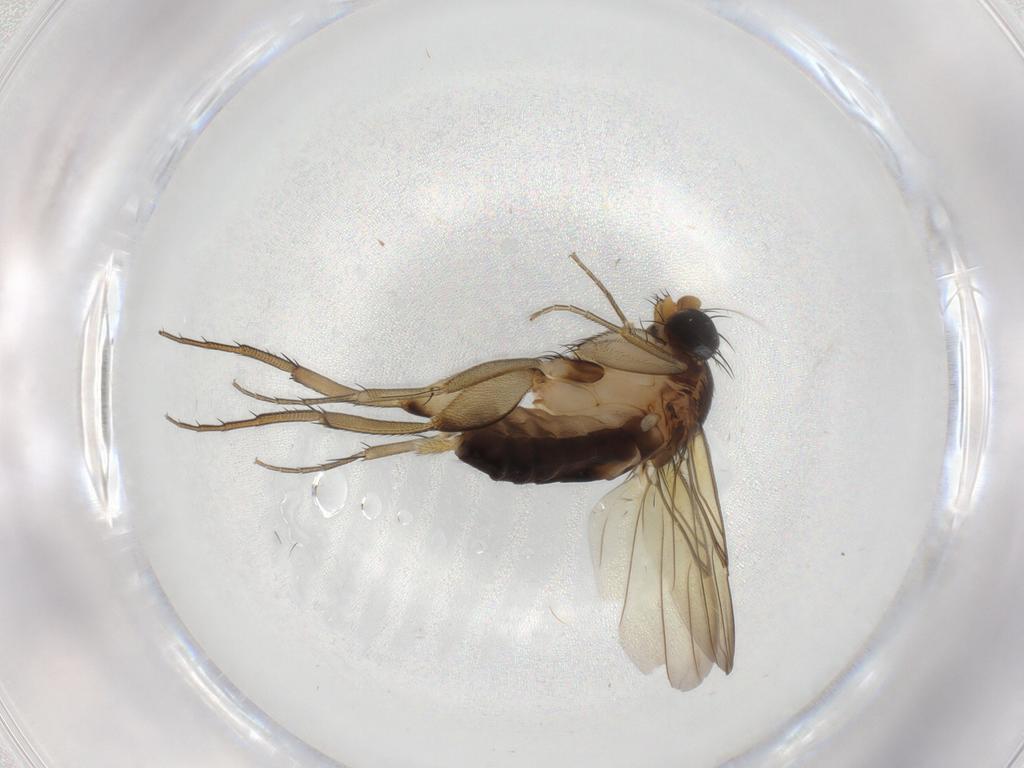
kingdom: Animalia
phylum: Arthropoda
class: Insecta
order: Diptera
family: Phoridae
